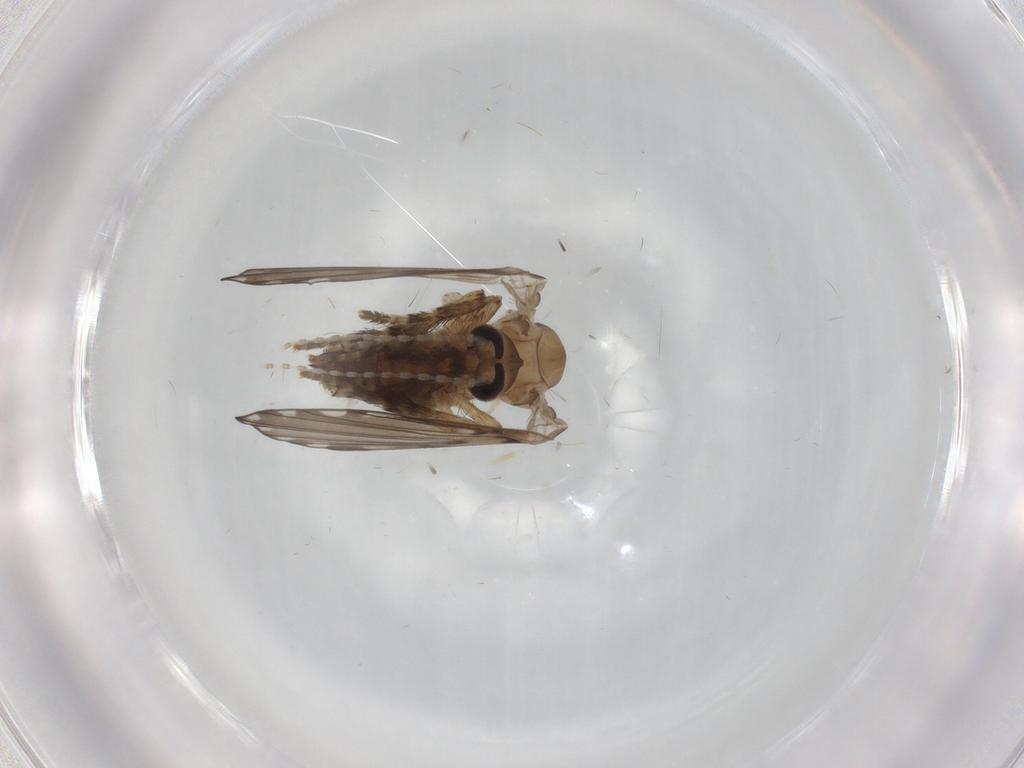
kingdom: Animalia
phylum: Arthropoda
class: Insecta
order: Diptera
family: Psychodidae
